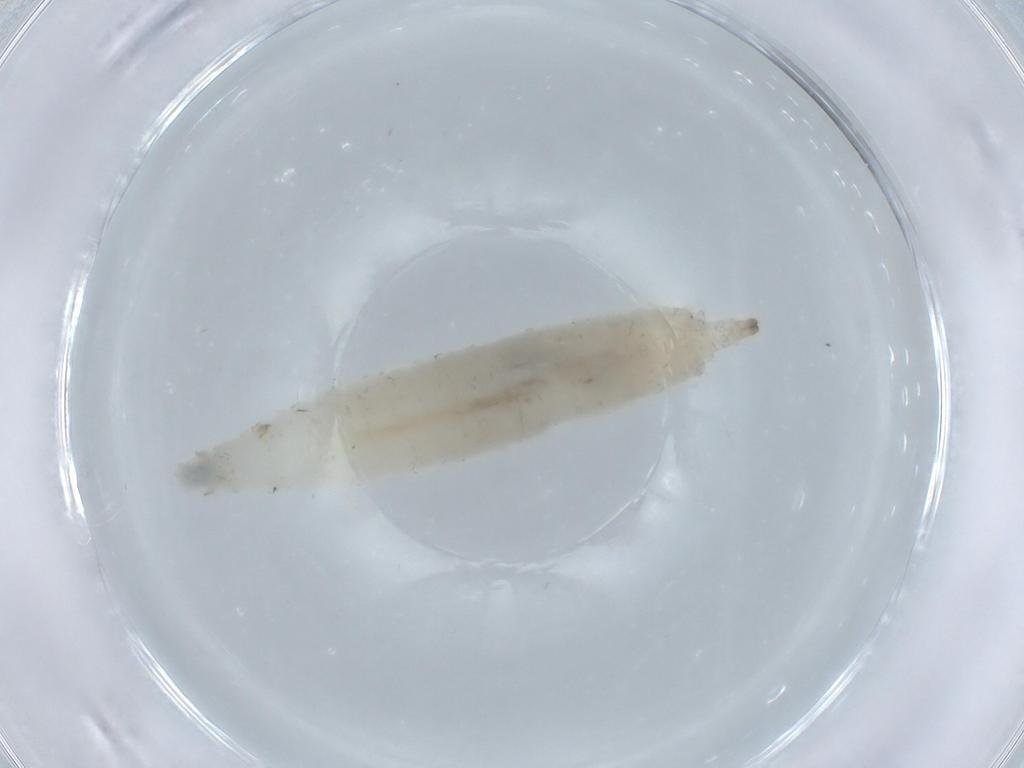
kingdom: Animalia
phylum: Arthropoda
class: Insecta
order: Diptera
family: Drosophilidae
